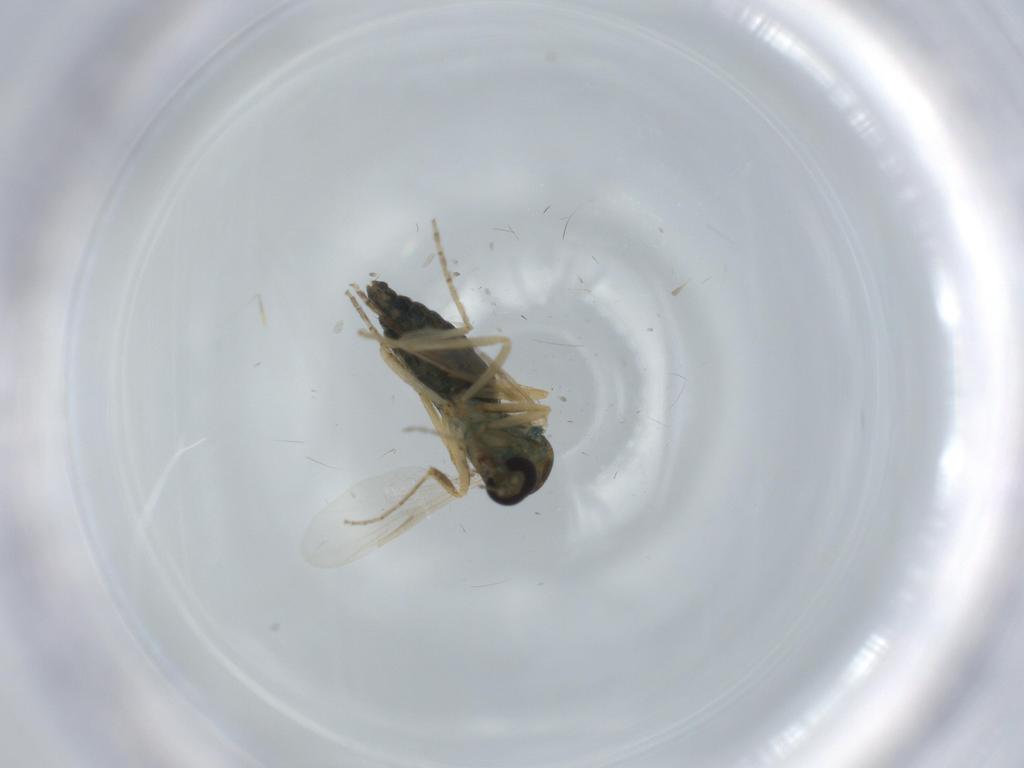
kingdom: Animalia
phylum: Arthropoda
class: Insecta
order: Diptera
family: Ceratopogonidae
